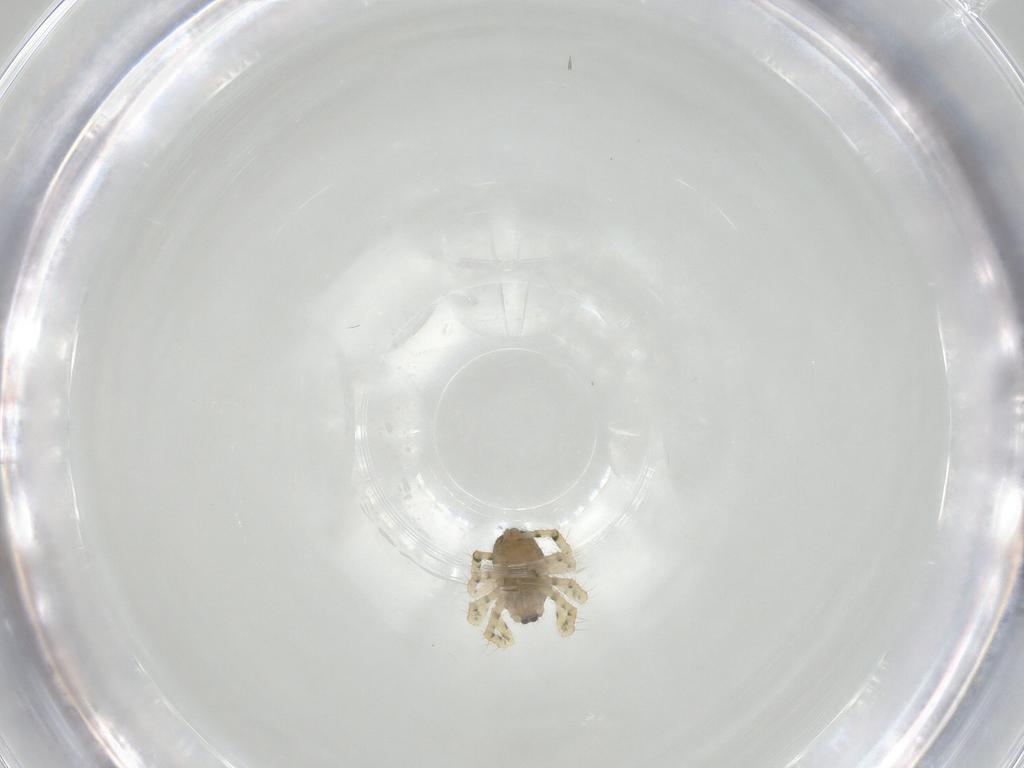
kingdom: Animalia
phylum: Arthropoda
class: Arachnida
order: Araneae
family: Theridiidae
